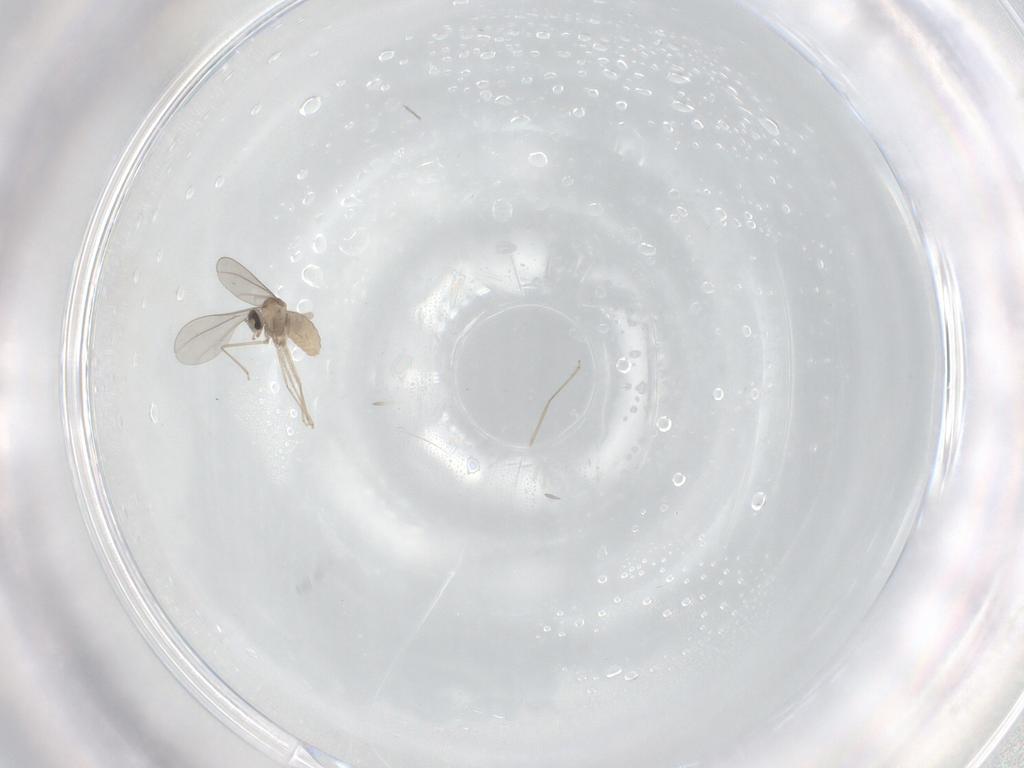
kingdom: Animalia
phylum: Arthropoda
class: Insecta
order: Diptera
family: Cecidomyiidae
